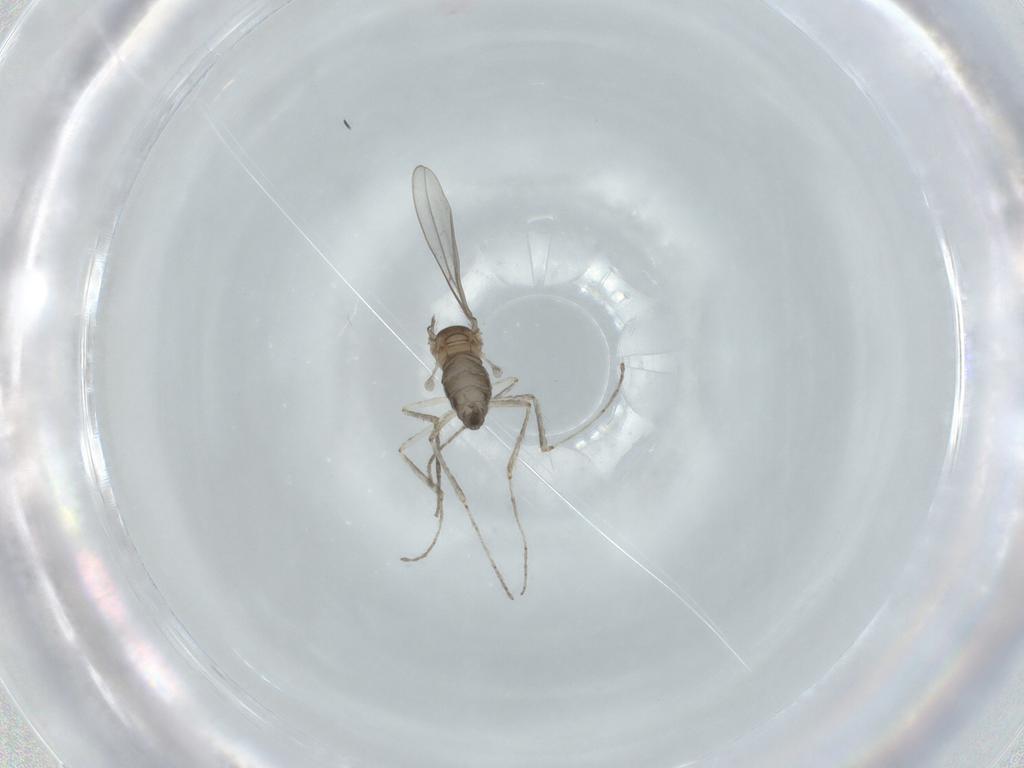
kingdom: Animalia
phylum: Arthropoda
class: Insecta
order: Diptera
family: Cecidomyiidae
